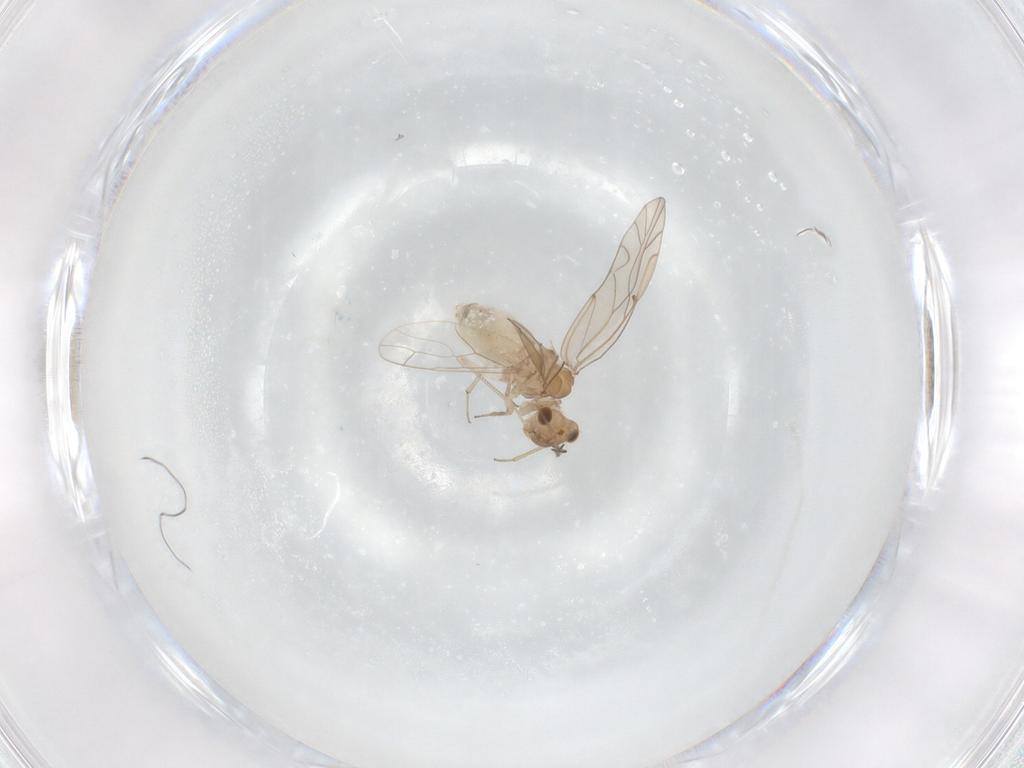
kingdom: Animalia
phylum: Arthropoda
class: Insecta
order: Psocodea
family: Lachesillidae
